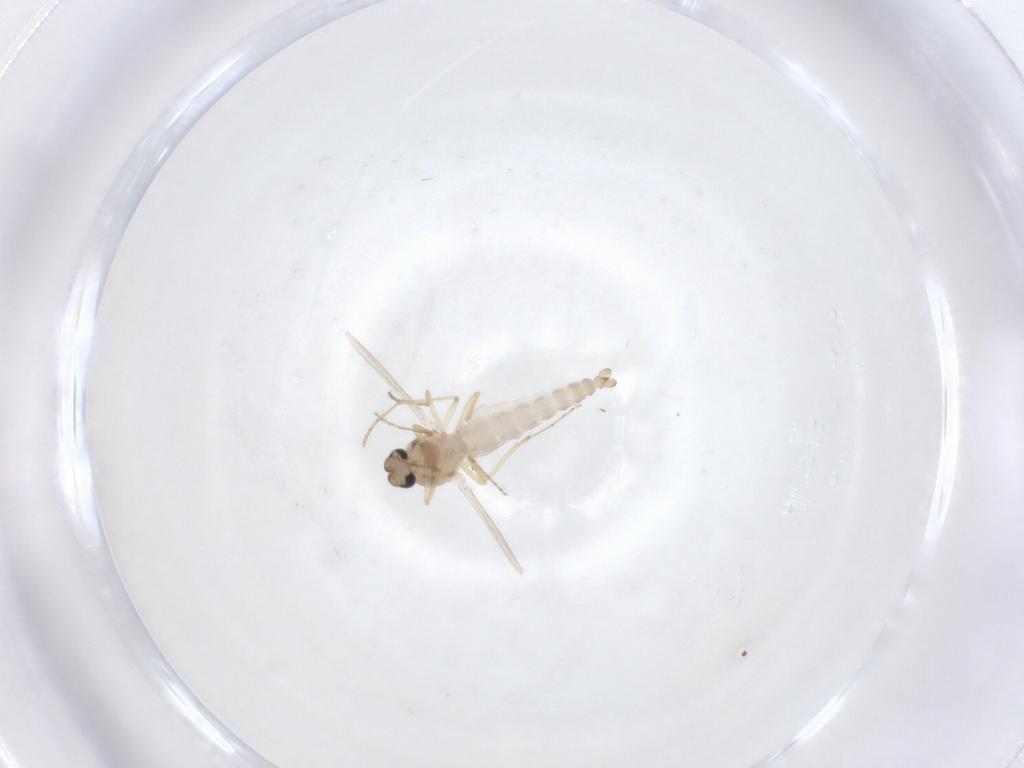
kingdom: Animalia
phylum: Arthropoda
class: Insecta
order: Diptera
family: Ceratopogonidae
